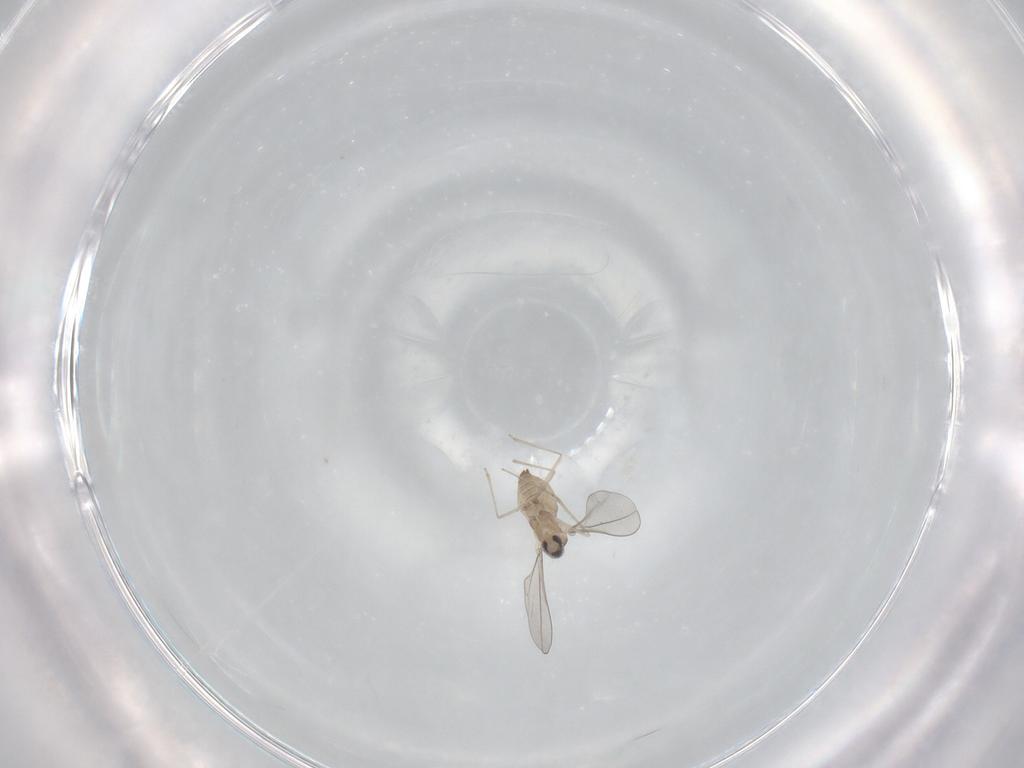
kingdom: Animalia
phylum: Arthropoda
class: Insecta
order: Diptera
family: Cecidomyiidae
